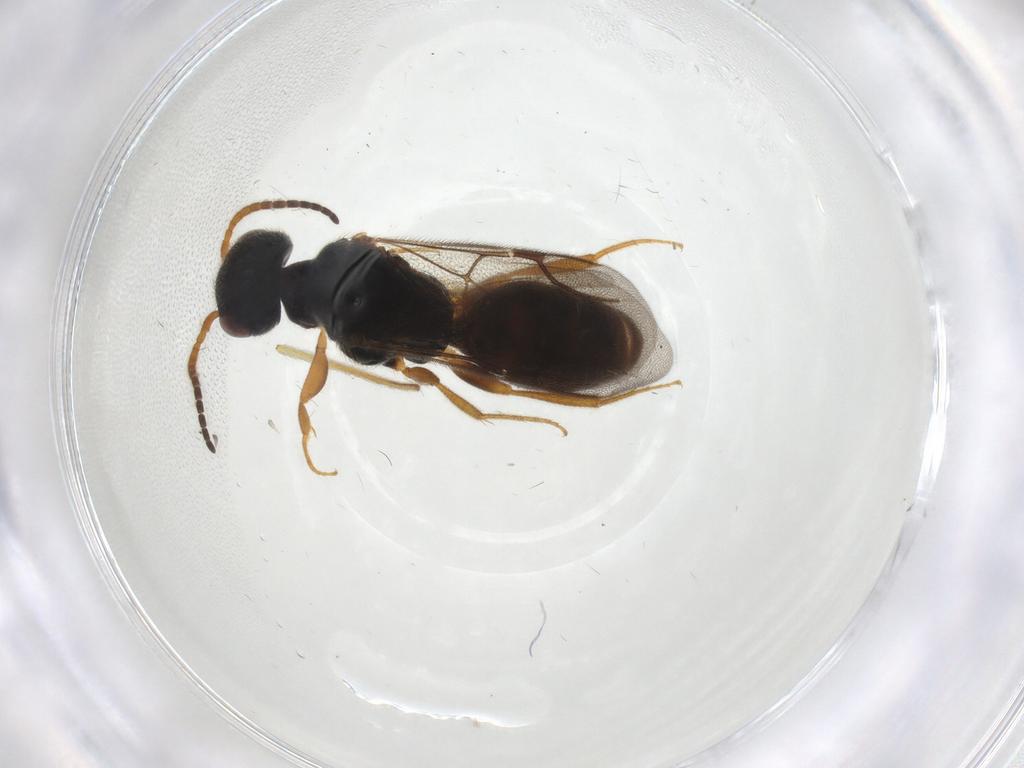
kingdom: Animalia
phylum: Arthropoda
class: Insecta
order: Hymenoptera
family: Bethylidae
